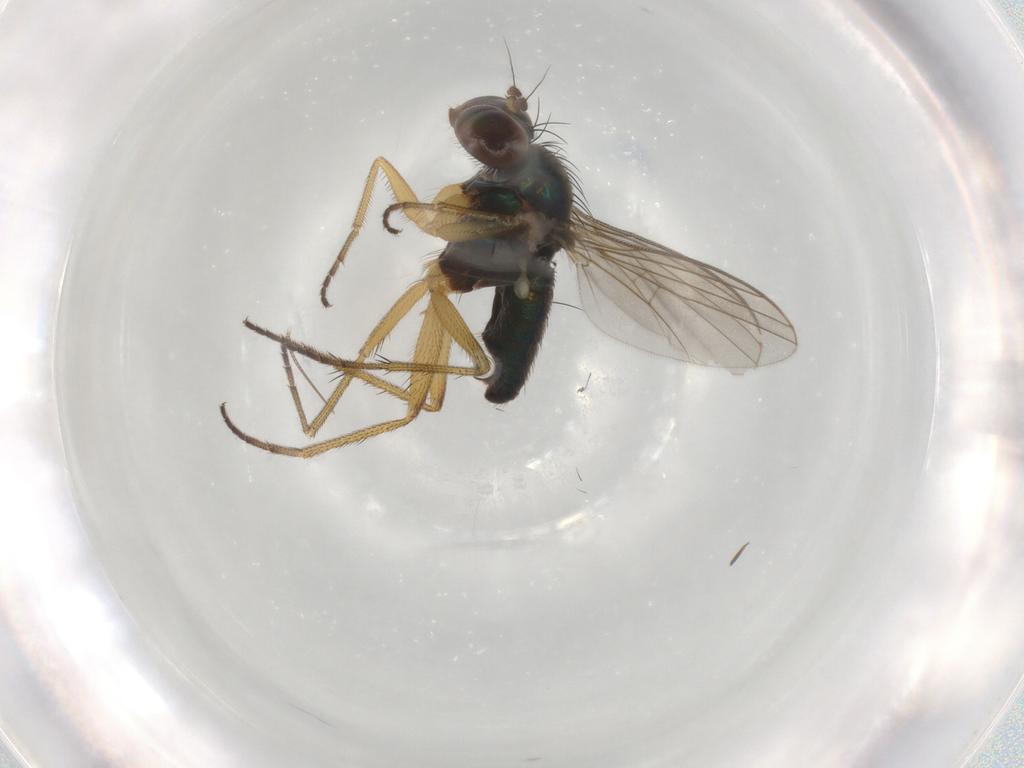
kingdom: Animalia
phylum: Arthropoda
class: Insecta
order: Diptera
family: Chironomidae
